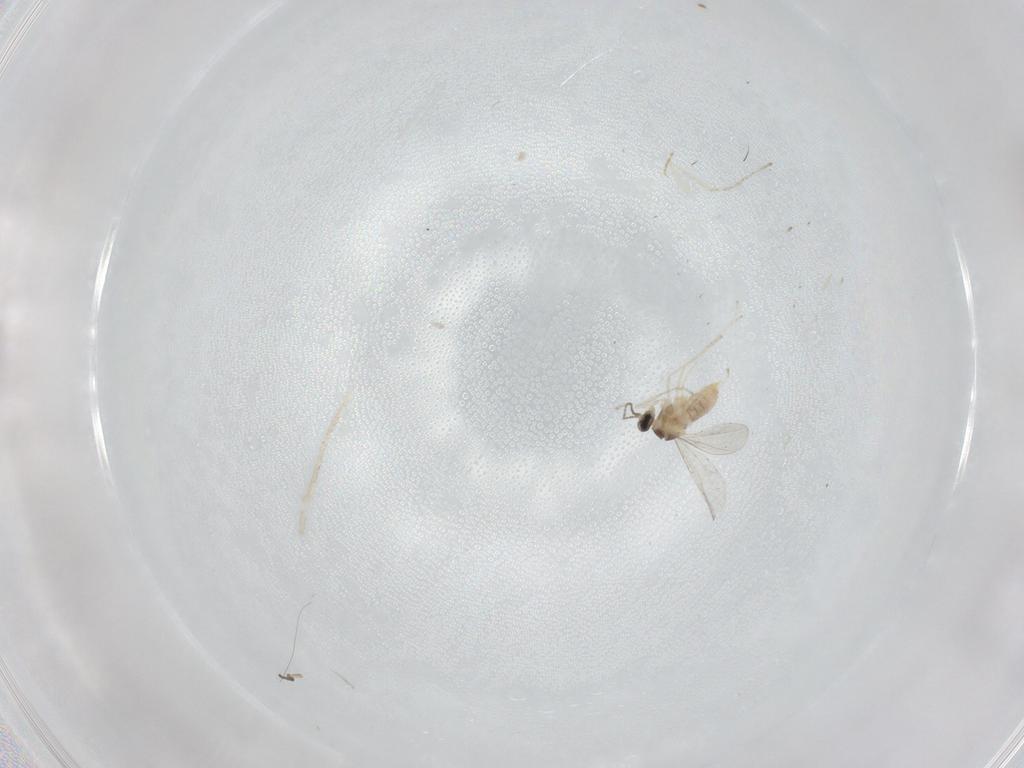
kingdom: Animalia
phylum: Arthropoda
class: Insecta
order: Diptera
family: Cecidomyiidae
